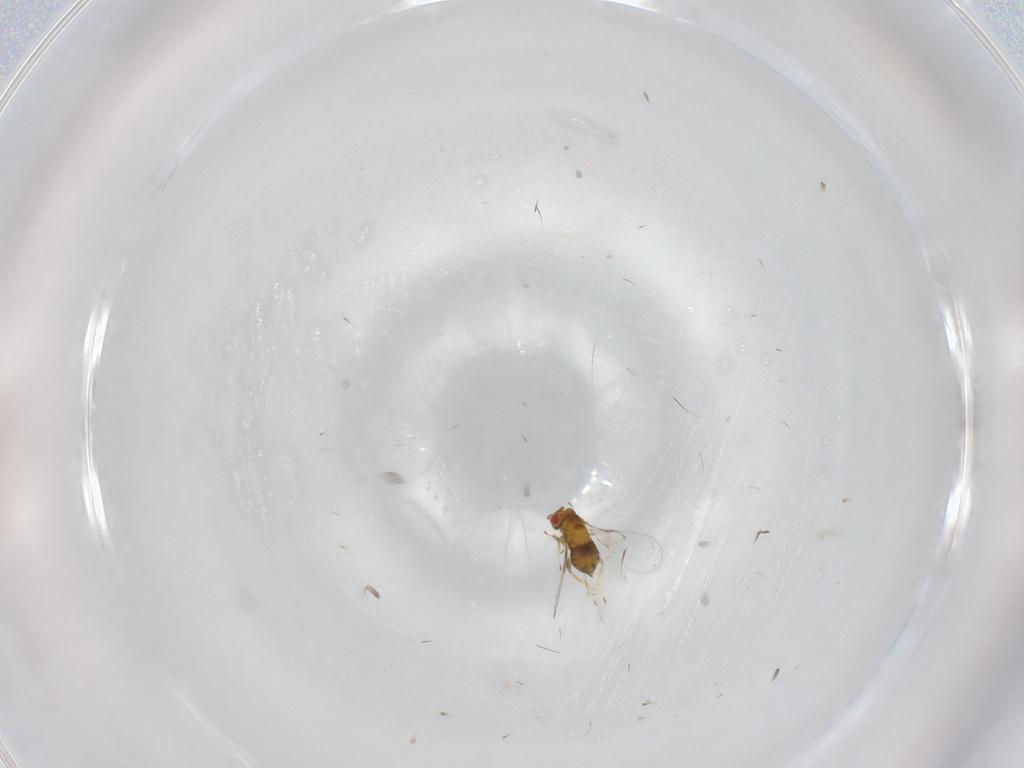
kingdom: Animalia
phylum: Arthropoda
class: Insecta
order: Hymenoptera
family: Trichogrammatidae
